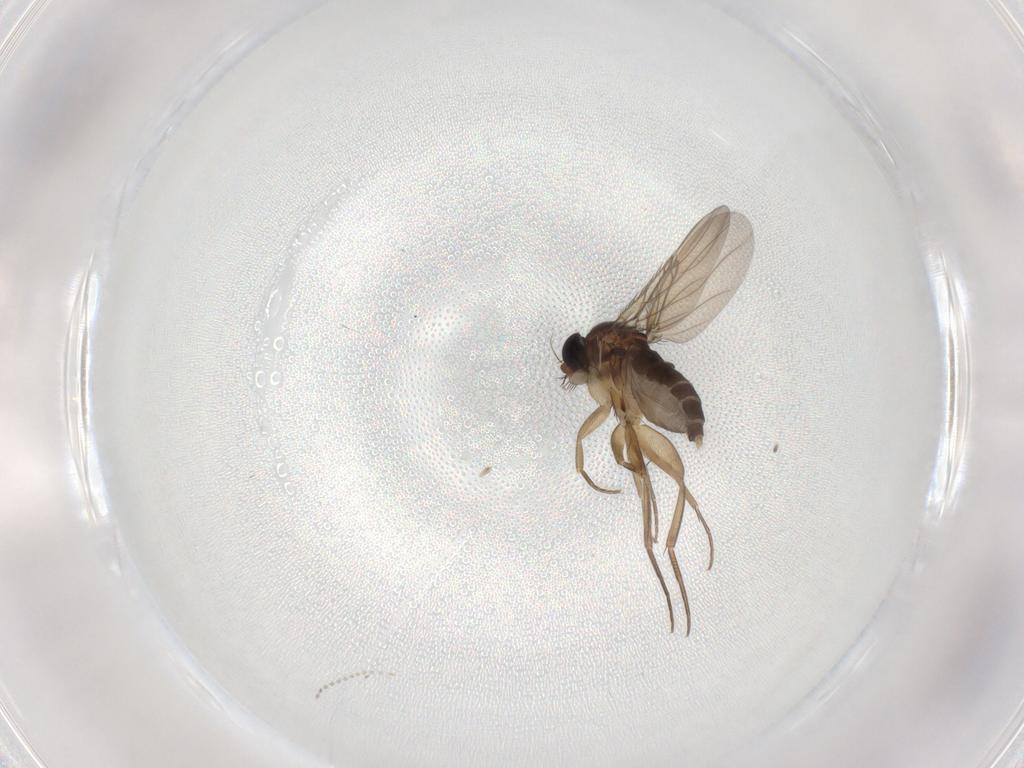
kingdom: Animalia
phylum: Arthropoda
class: Insecta
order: Diptera
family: Phoridae
